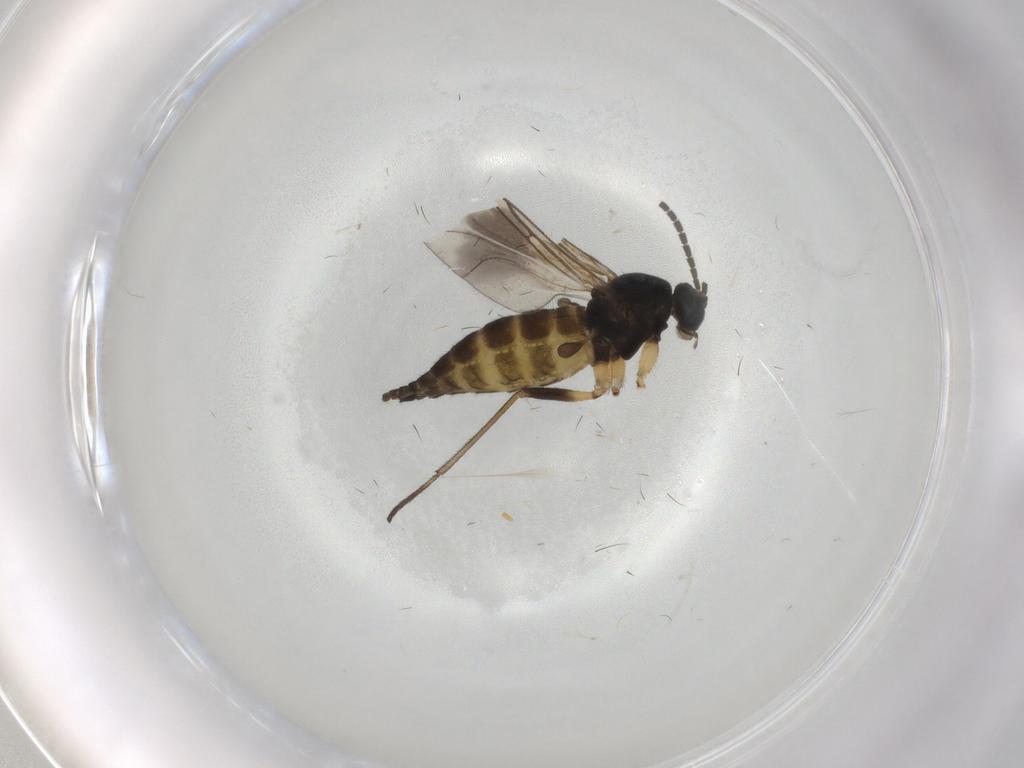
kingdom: Animalia
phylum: Arthropoda
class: Insecta
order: Diptera
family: Sciaridae
